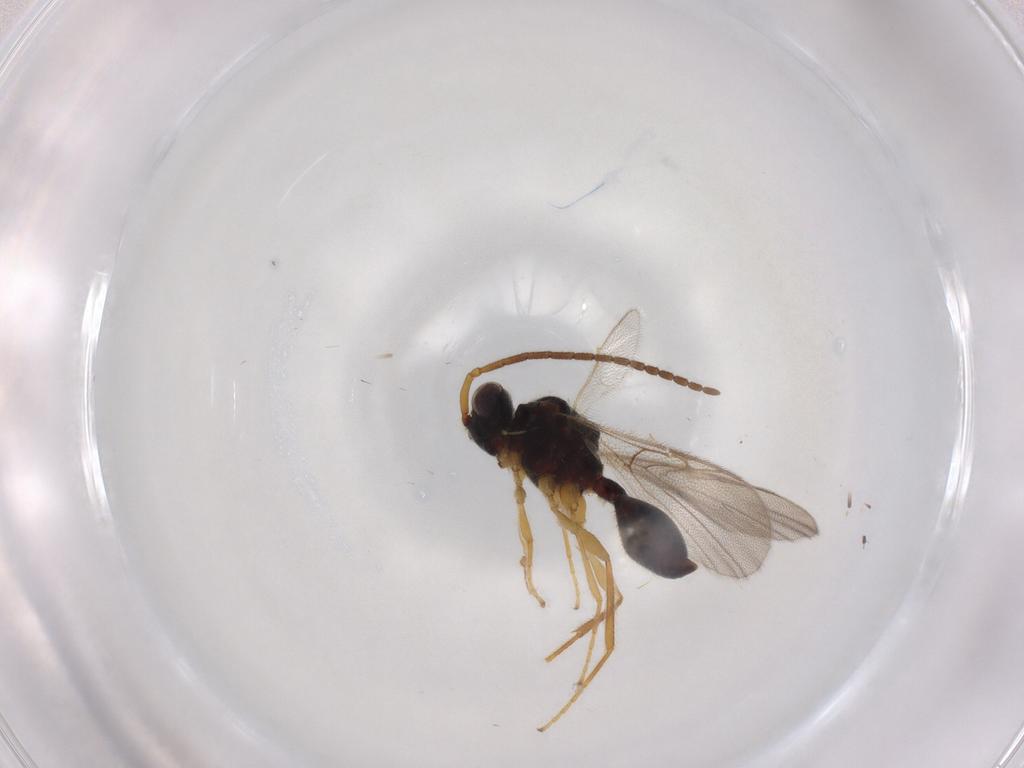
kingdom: Animalia
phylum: Arthropoda
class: Insecta
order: Hymenoptera
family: Diapriidae
